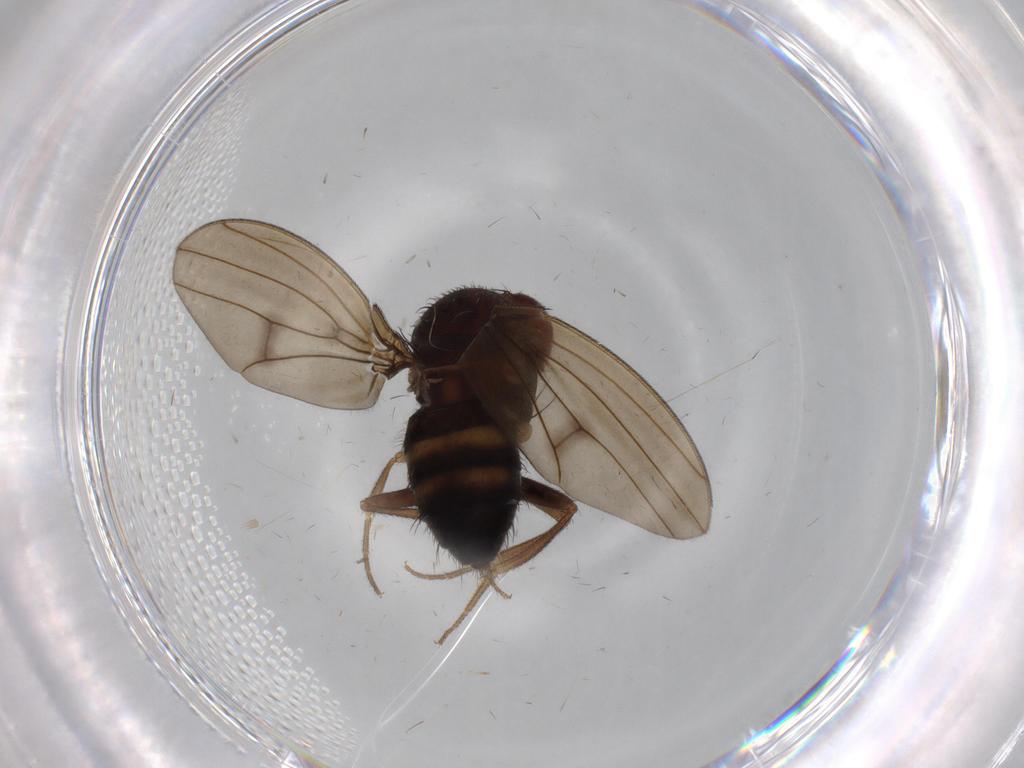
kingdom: Animalia
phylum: Arthropoda
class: Insecta
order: Diptera
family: Drosophilidae
